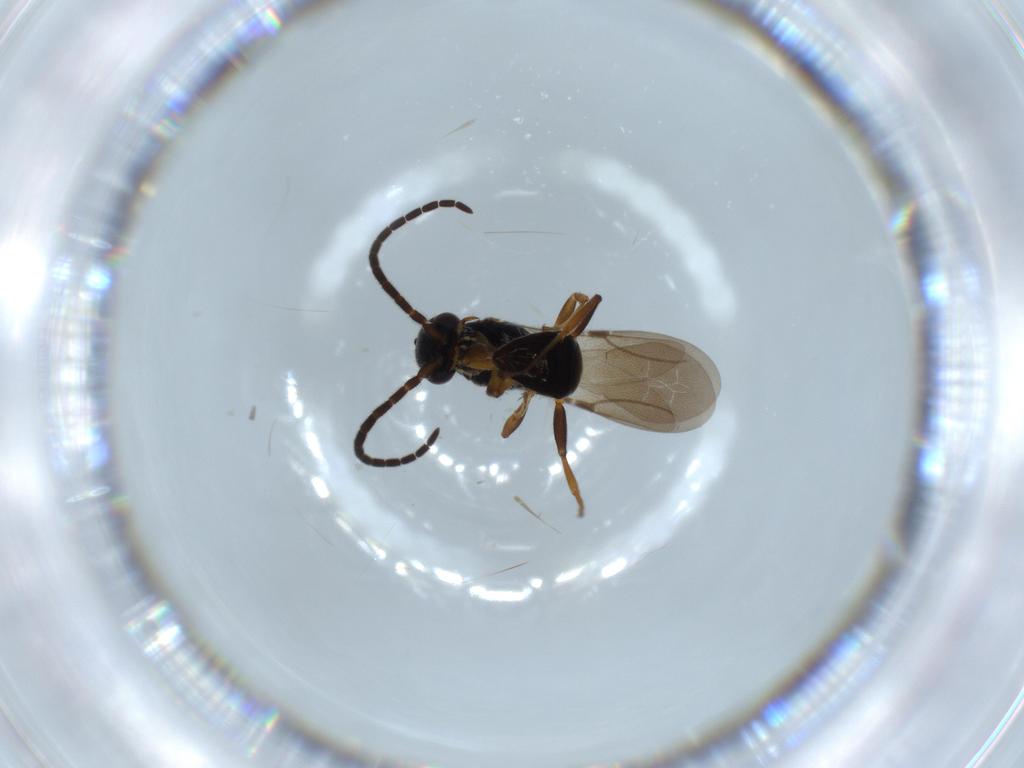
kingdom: Animalia
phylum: Arthropoda
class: Insecta
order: Hymenoptera
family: Bethylidae
